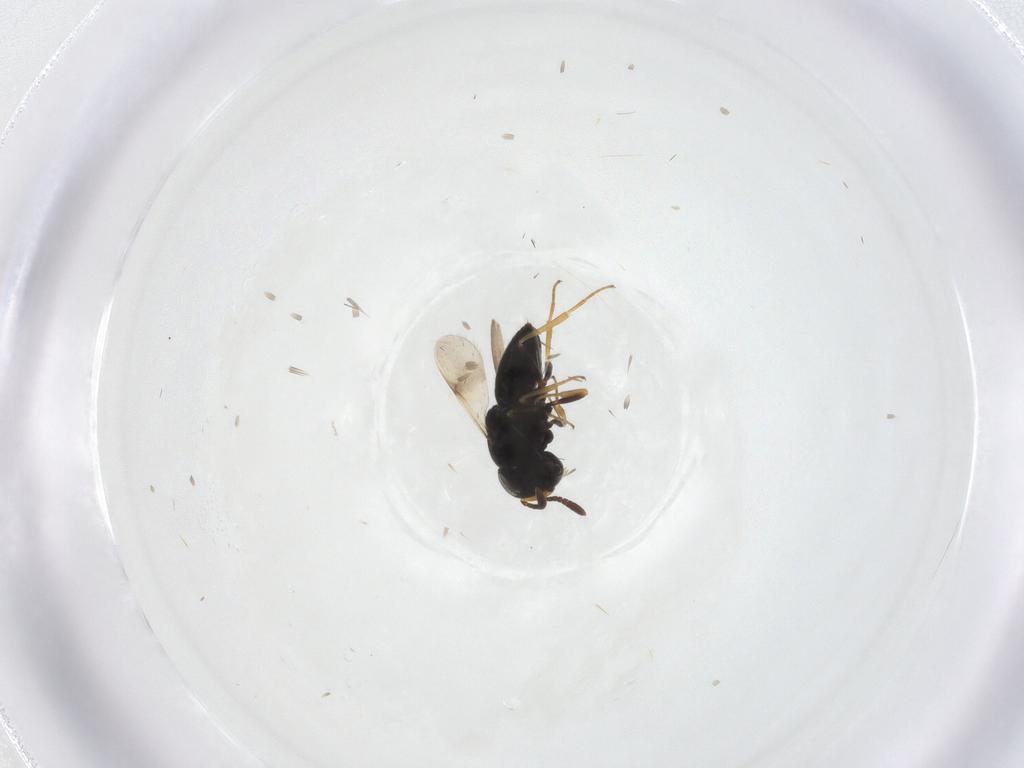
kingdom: Animalia
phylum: Arthropoda
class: Insecta
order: Hymenoptera
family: Scelionidae
